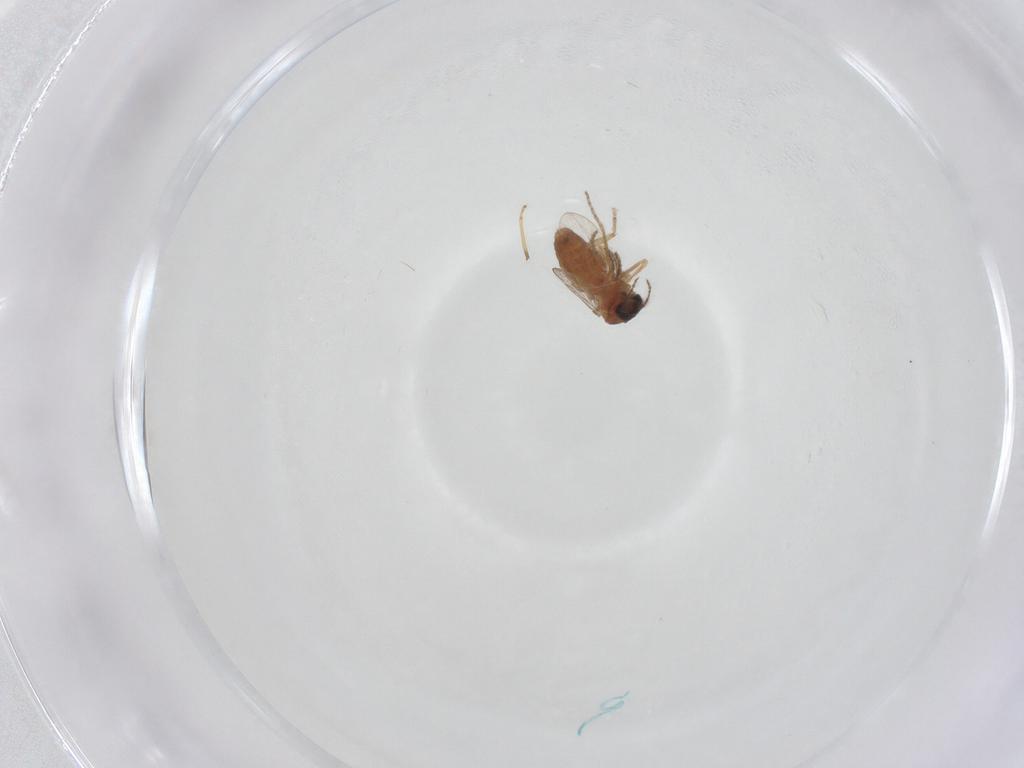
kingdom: Animalia
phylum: Arthropoda
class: Insecta
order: Diptera
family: Ceratopogonidae
